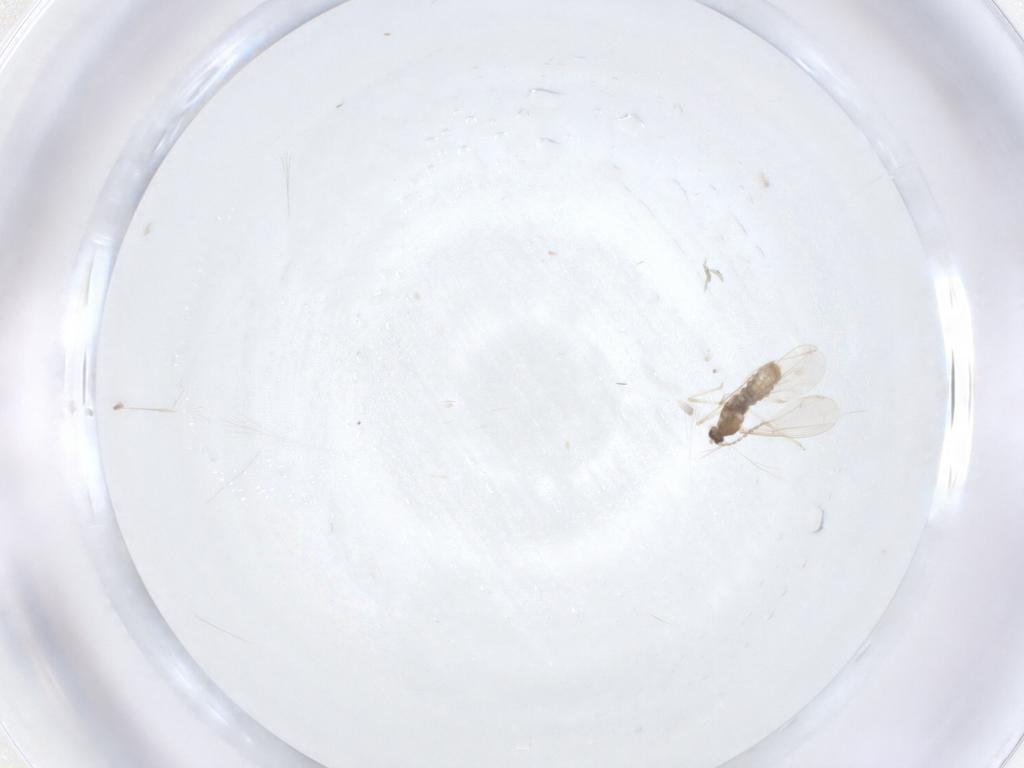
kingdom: Animalia
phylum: Arthropoda
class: Insecta
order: Diptera
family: Cecidomyiidae
